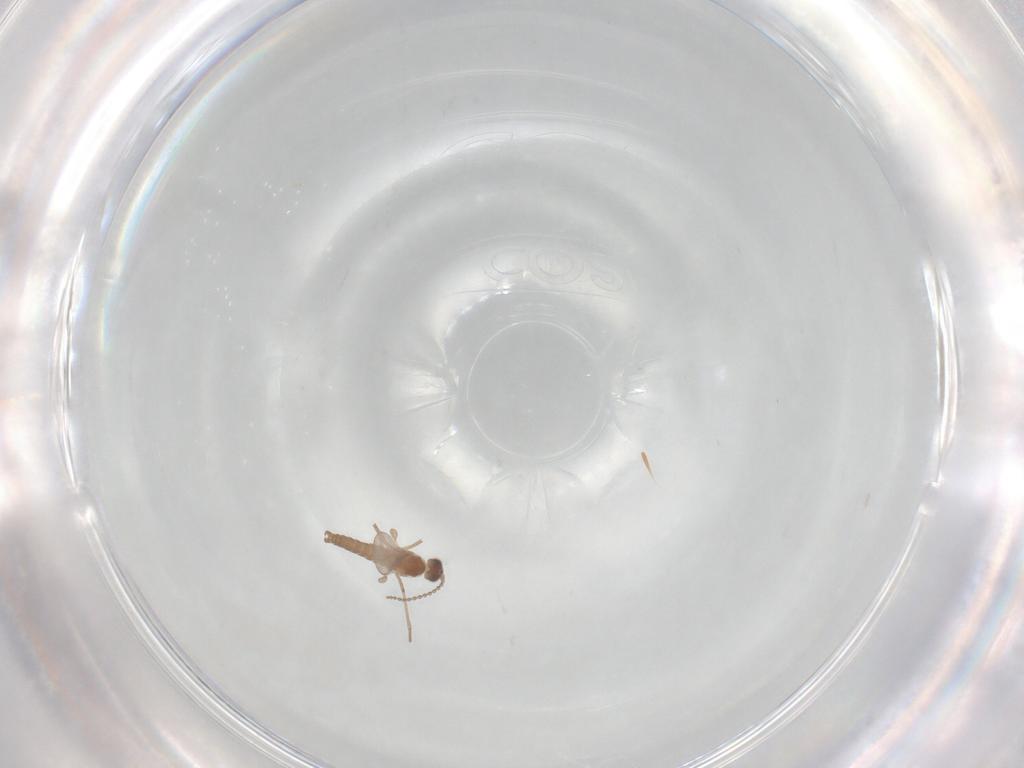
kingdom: Animalia
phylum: Arthropoda
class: Insecta
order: Diptera
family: Cecidomyiidae
